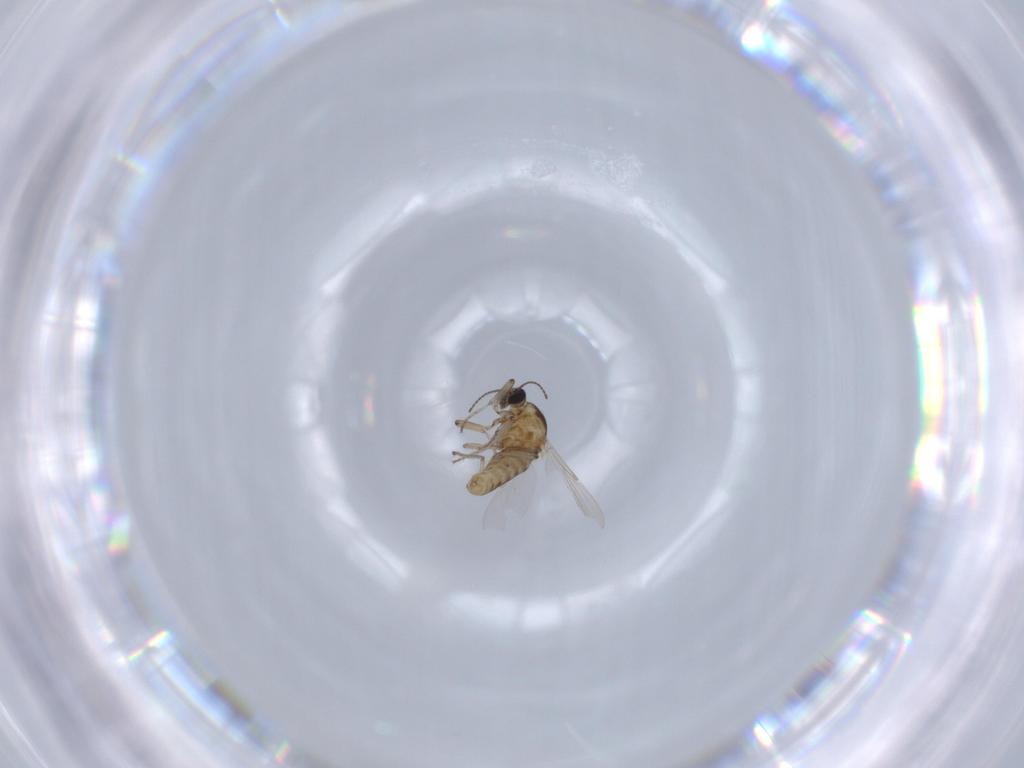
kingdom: Animalia
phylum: Arthropoda
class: Insecta
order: Diptera
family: Ceratopogonidae
